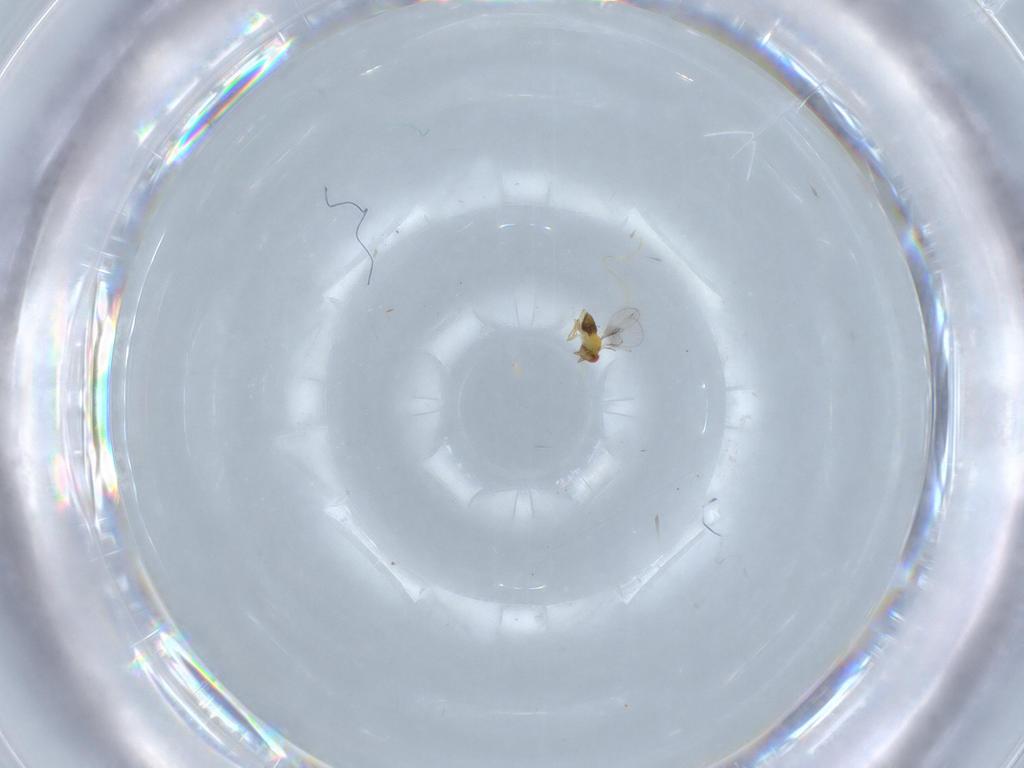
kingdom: Animalia
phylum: Arthropoda
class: Insecta
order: Hymenoptera
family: Trichogrammatidae
